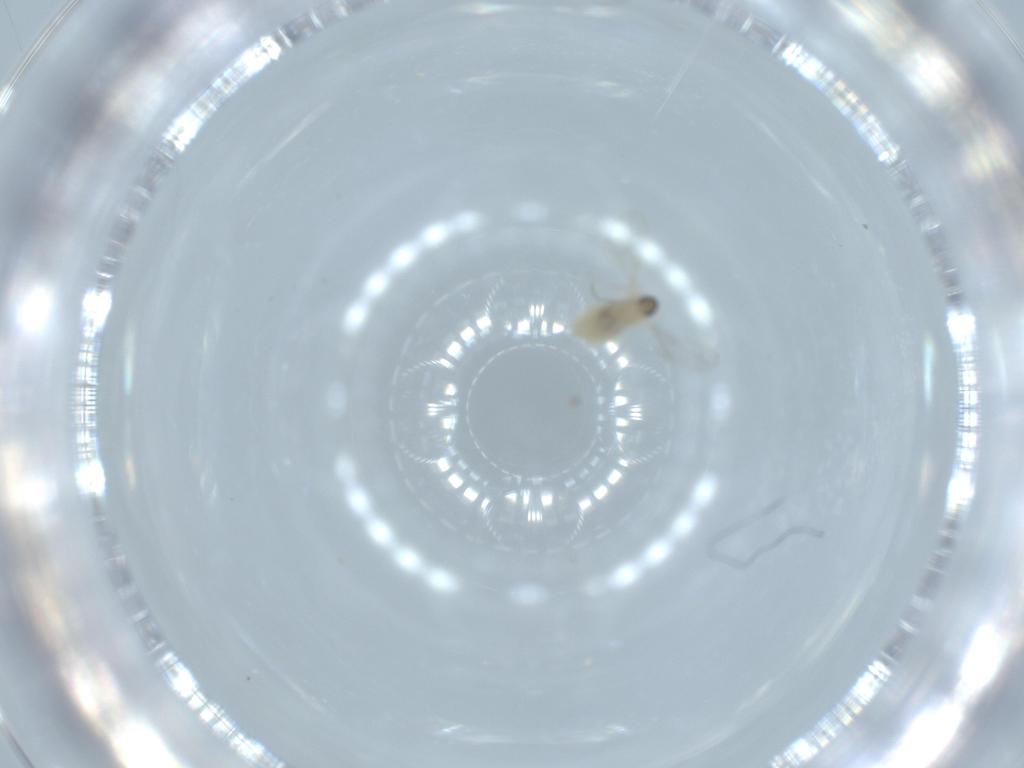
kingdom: Animalia
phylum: Arthropoda
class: Insecta
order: Diptera
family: Cecidomyiidae
